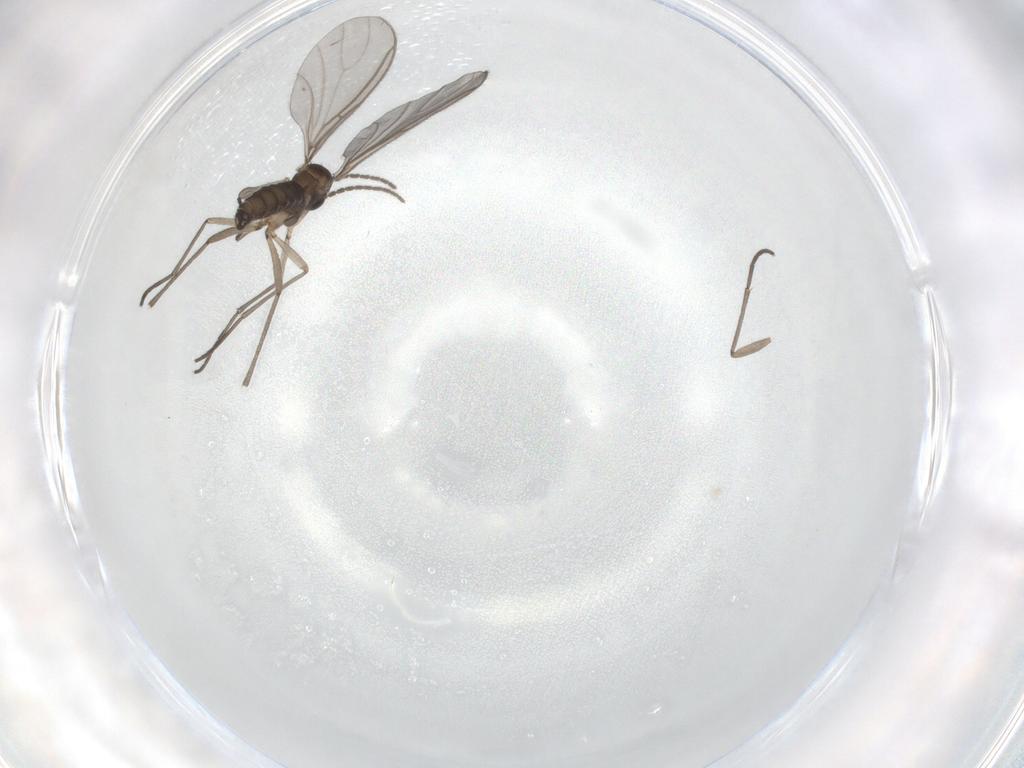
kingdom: Animalia
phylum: Arthropoda
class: Insecta
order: Diptera
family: Sciaridae
